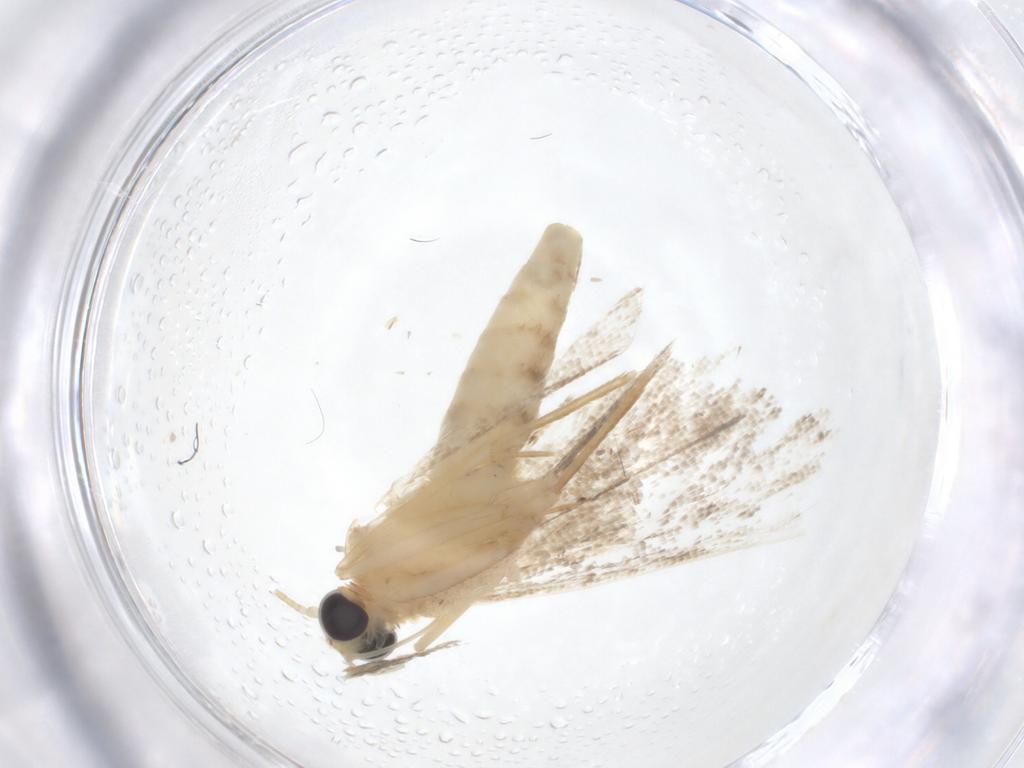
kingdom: Animalia
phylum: Arthropoda
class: Insecta
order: Lepidoptera
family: Crambidae
